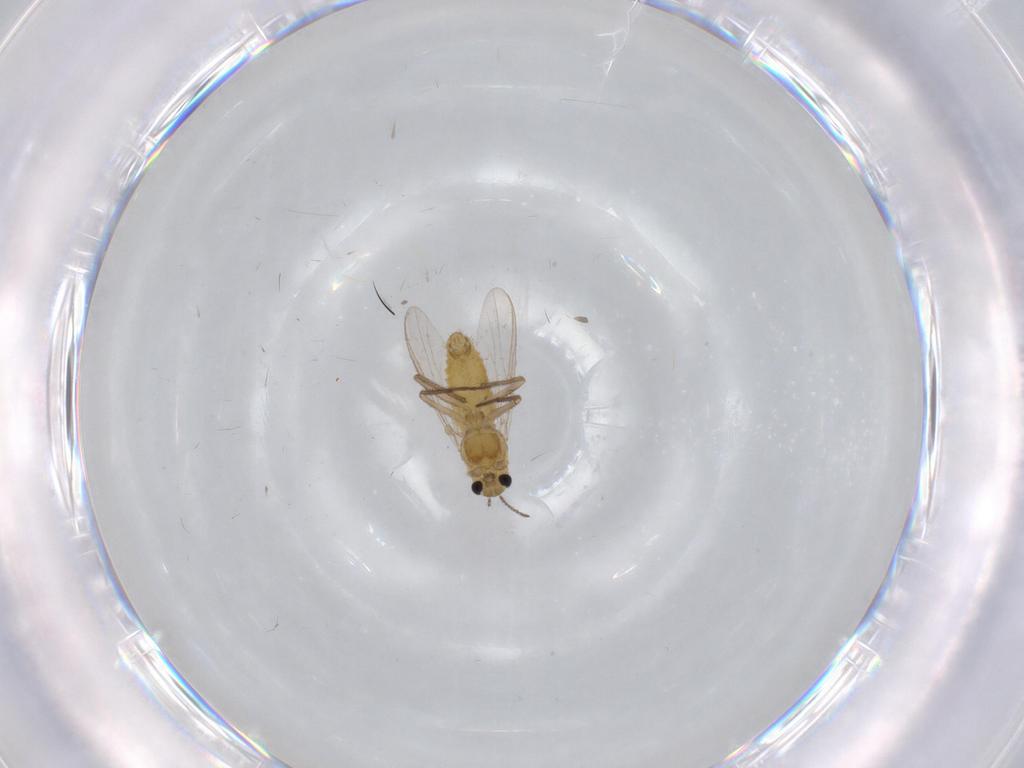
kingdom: Animalia
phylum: Arthropoda
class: Insecta
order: Diptera
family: Chironomidae
